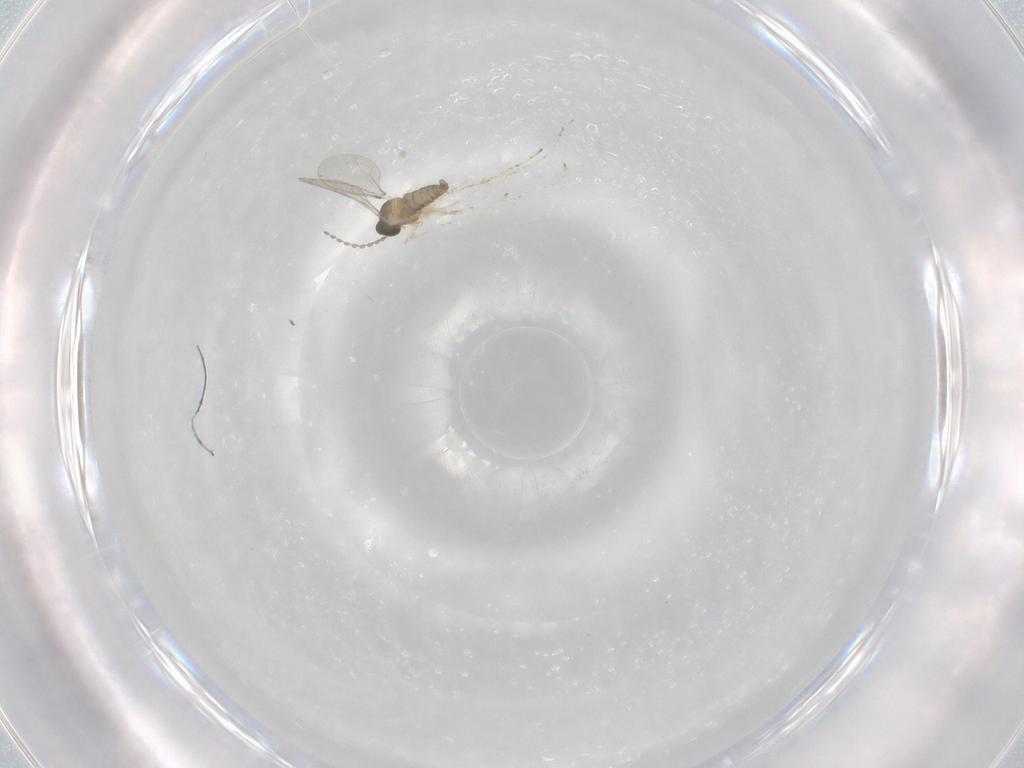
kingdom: Animalia
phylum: Arthropoda
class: Insecta
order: Diptera
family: Cecidomyiidae
